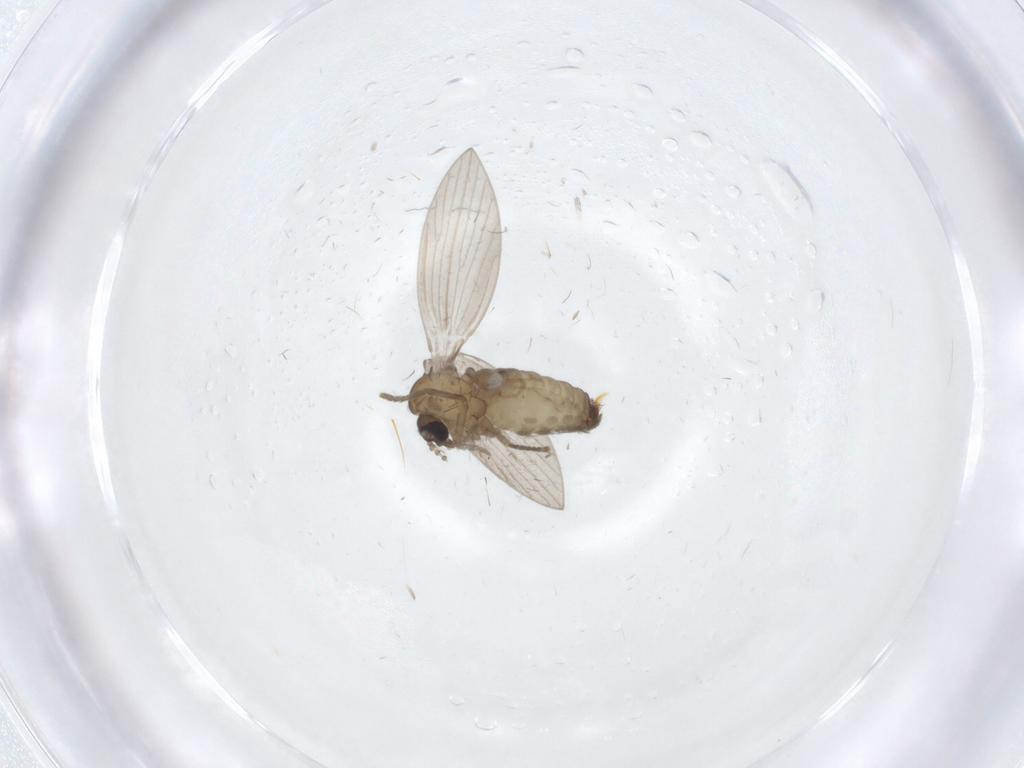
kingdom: Animalia
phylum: Arthropoda
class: Insecta
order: Diptera
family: Psychodidae
